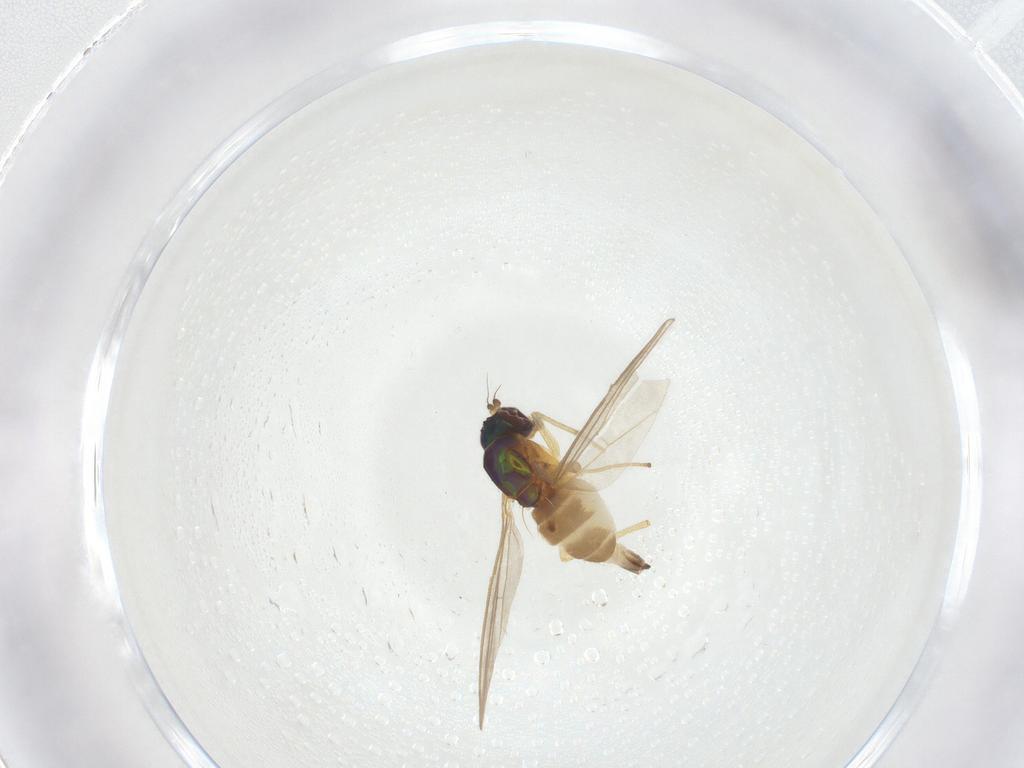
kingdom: Animalia
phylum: Arthropoda
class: Insecta
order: Diptera
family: Dolichopodidae
